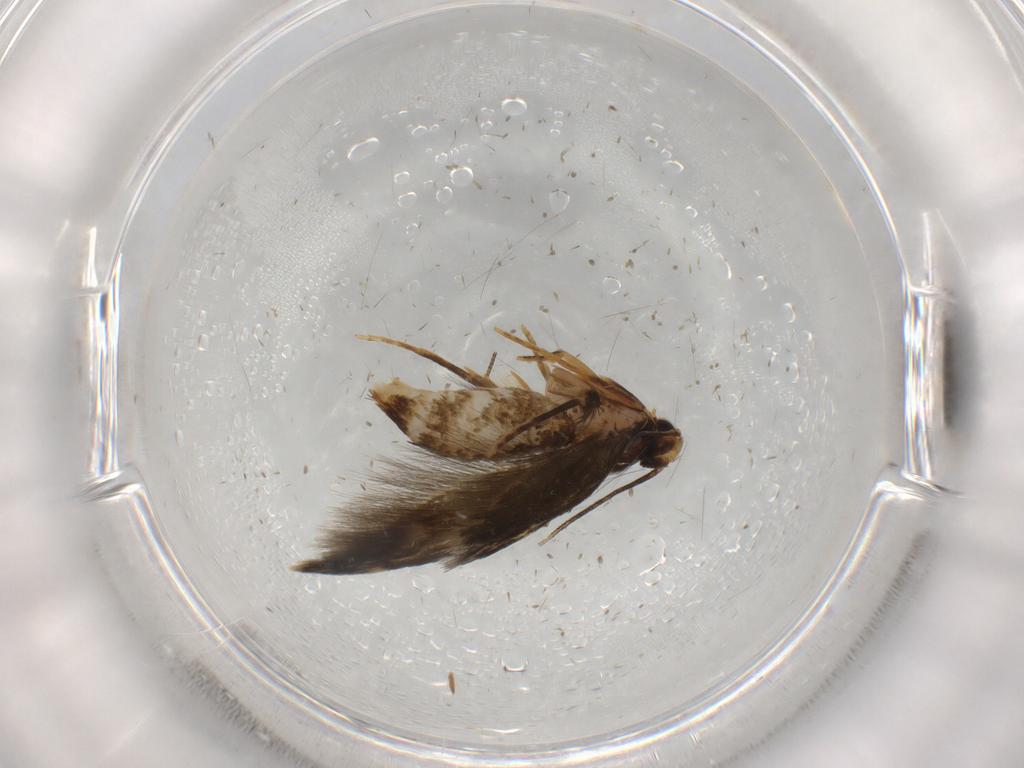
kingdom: Animalia
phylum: Arthropoda
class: Insecta
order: Lepidoptera
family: Tineidae
